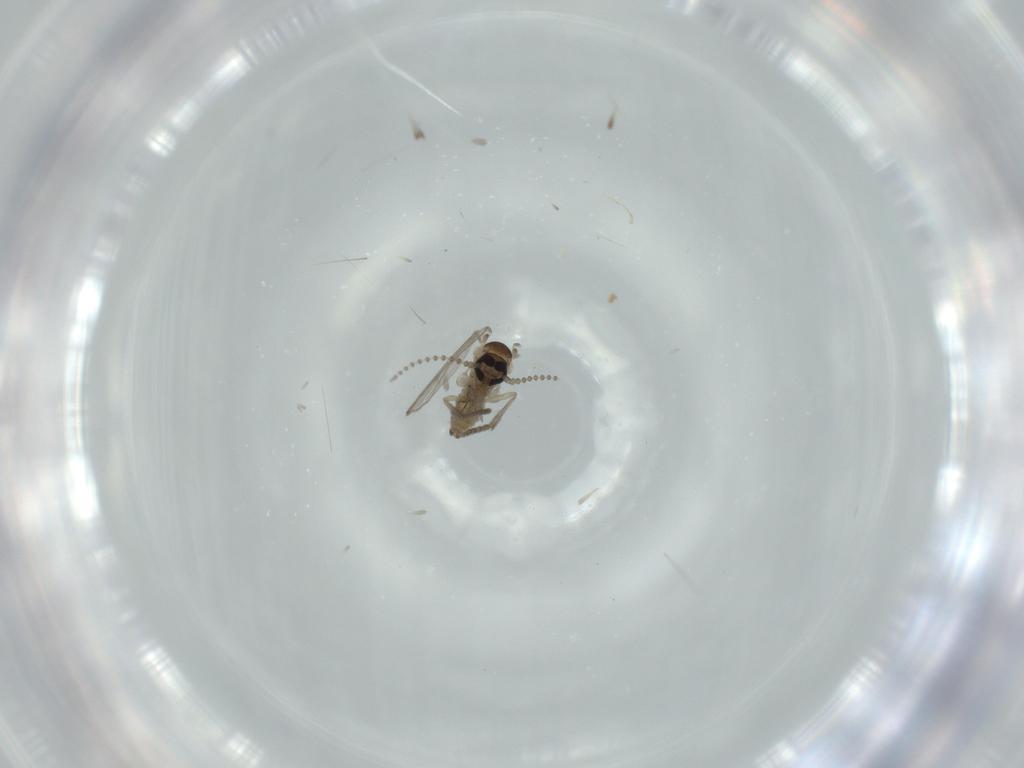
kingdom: Animalia
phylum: Arthropoda
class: Insecta
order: Diptera
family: Psychodidae
